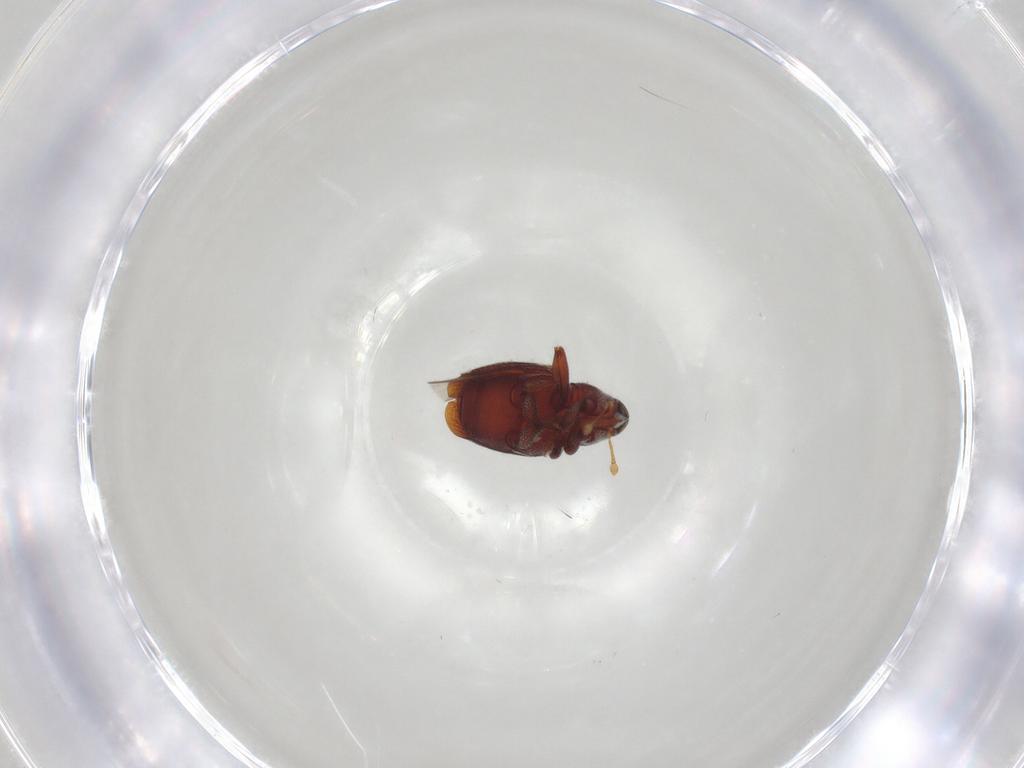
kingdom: Animalia
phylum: Arthropoda
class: Insecta
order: Coleoptera
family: Curculionidae
